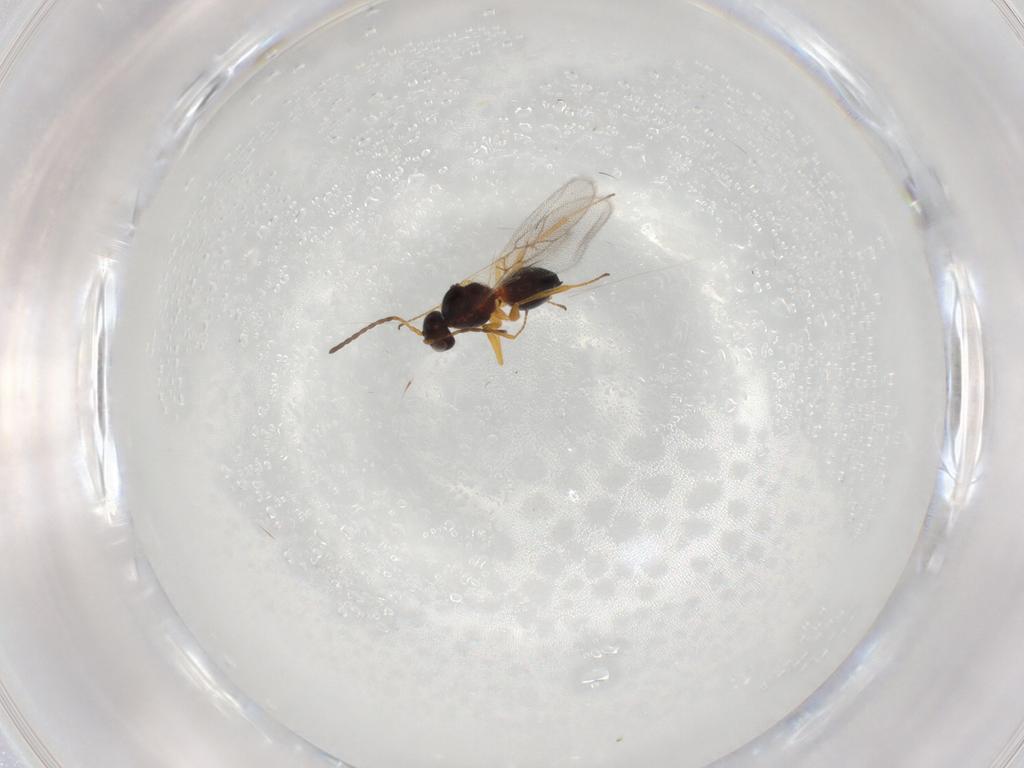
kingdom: Animalia
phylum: Arthropoda
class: Insecta
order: Hymenoptera
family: Figitidae
